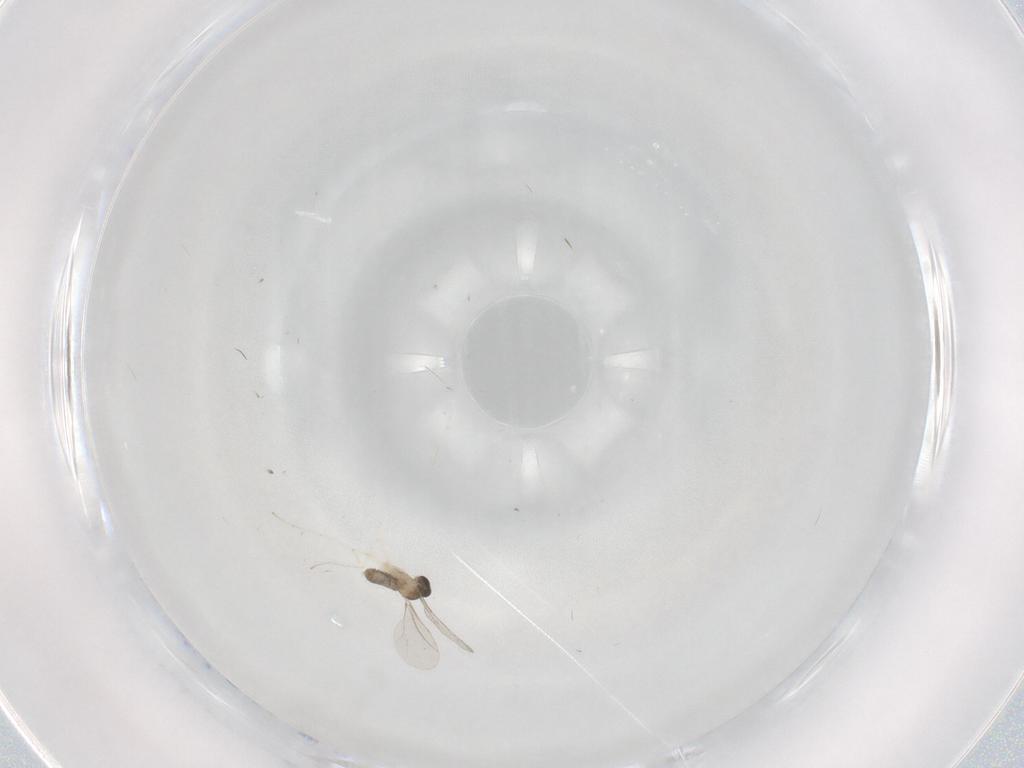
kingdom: Animalia
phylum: Arthropoda
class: Insecta
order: Diptera
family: Cecidomyiidae
